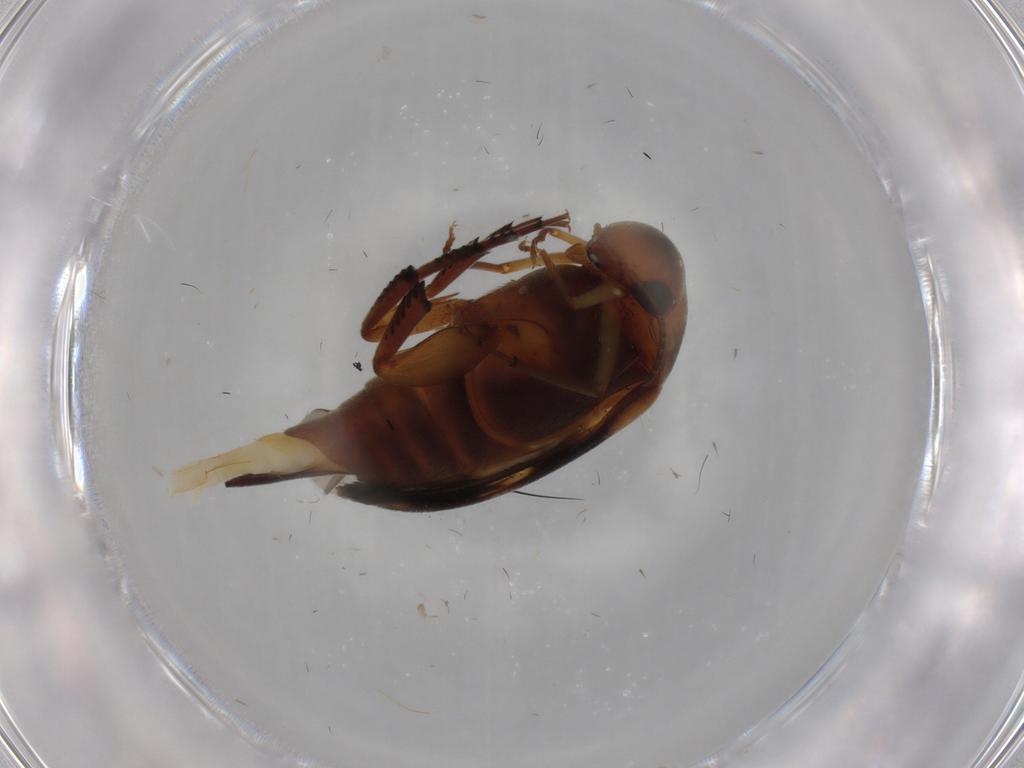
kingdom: Animalia
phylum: Arthropoda
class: Insecta
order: Coleoptera
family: Mordellidae
